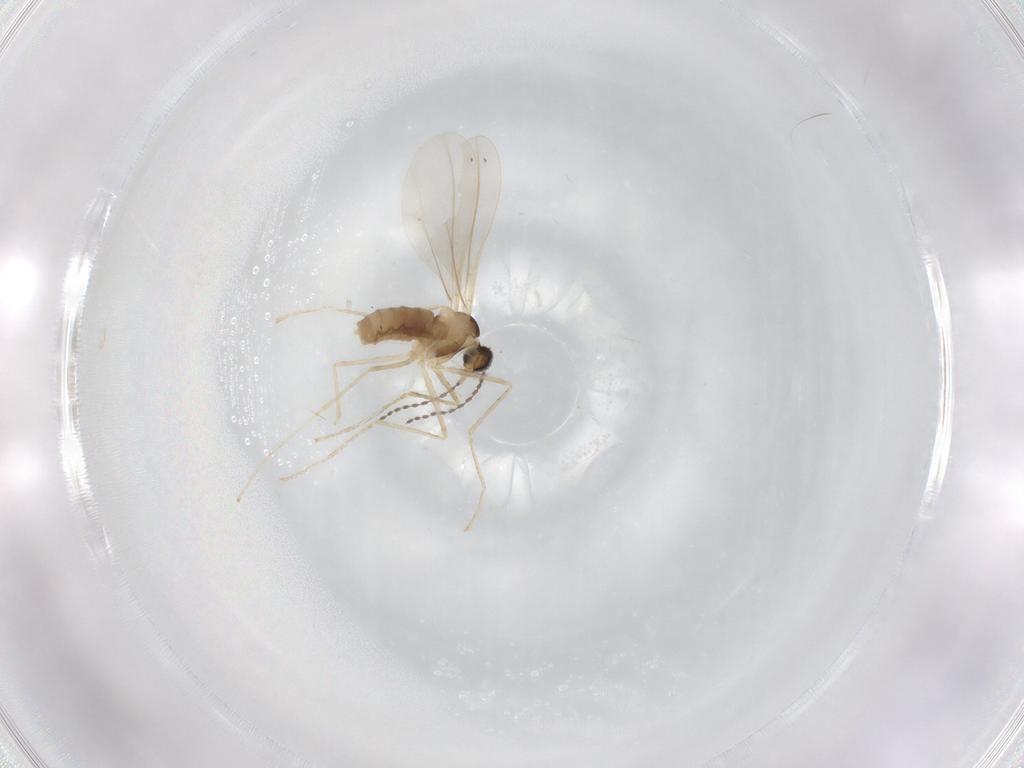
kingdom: Animalia
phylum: Arthropoda
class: Insecta
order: Diptera
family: Cecidomyiidae
